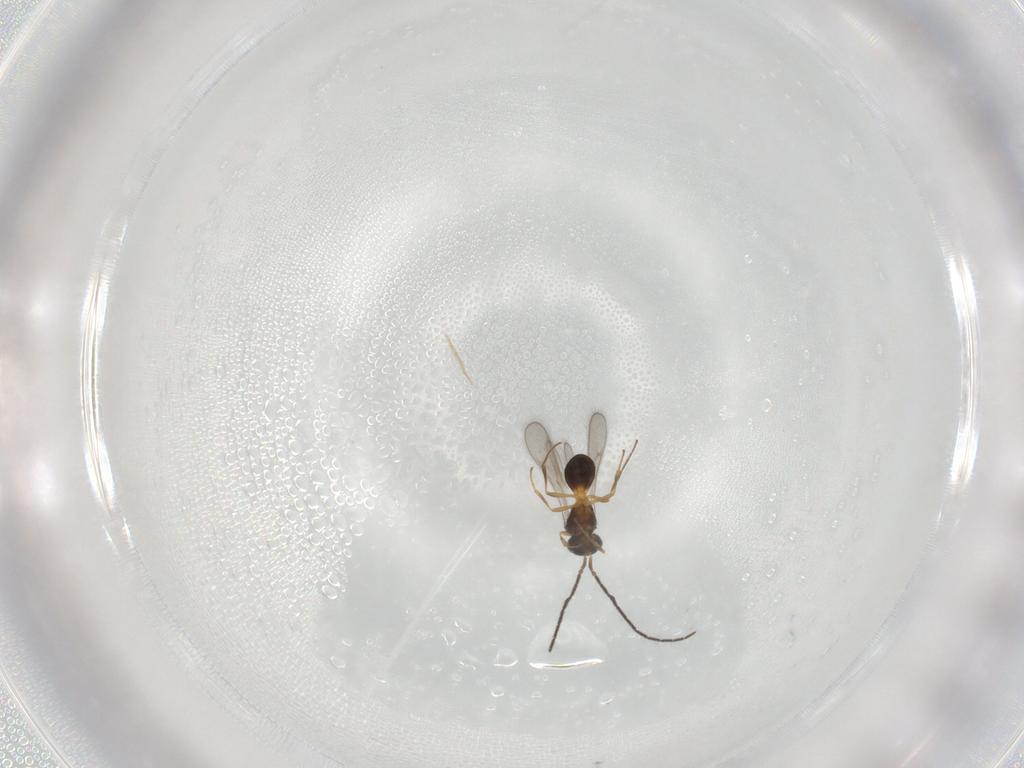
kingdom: Animalia
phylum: Arthropoda
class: Insecta
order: Hymenoptera
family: Scelionidae
